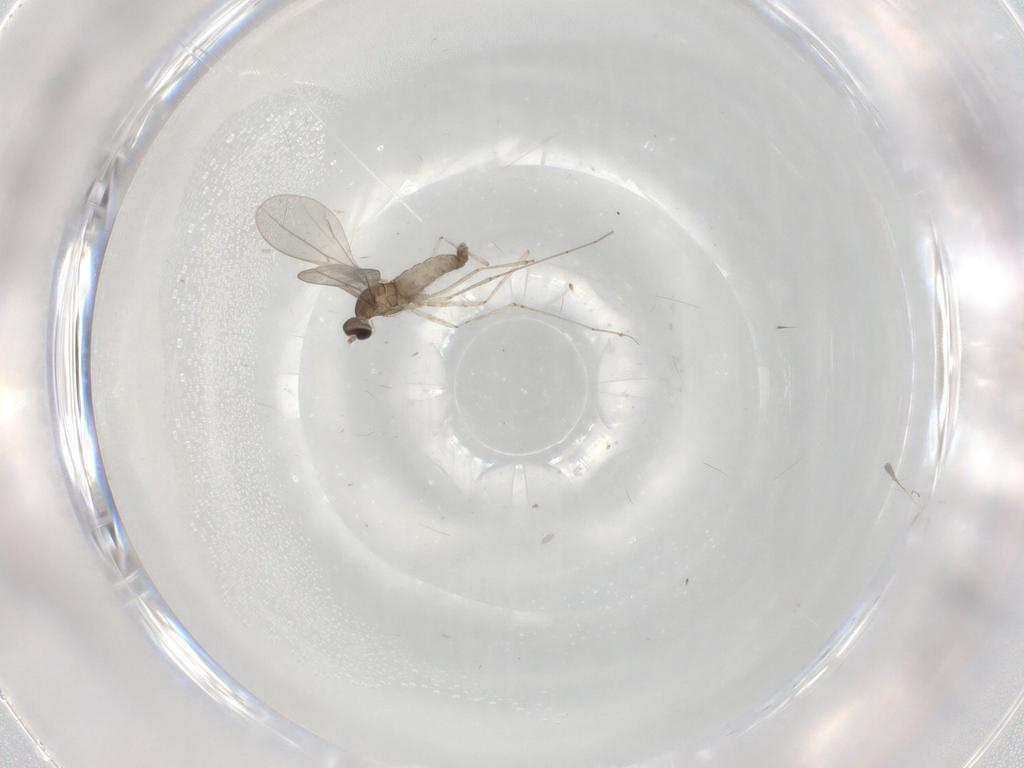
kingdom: Animalia
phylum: Arthropoda
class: Insecta
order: Diptera
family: Chloropidae
